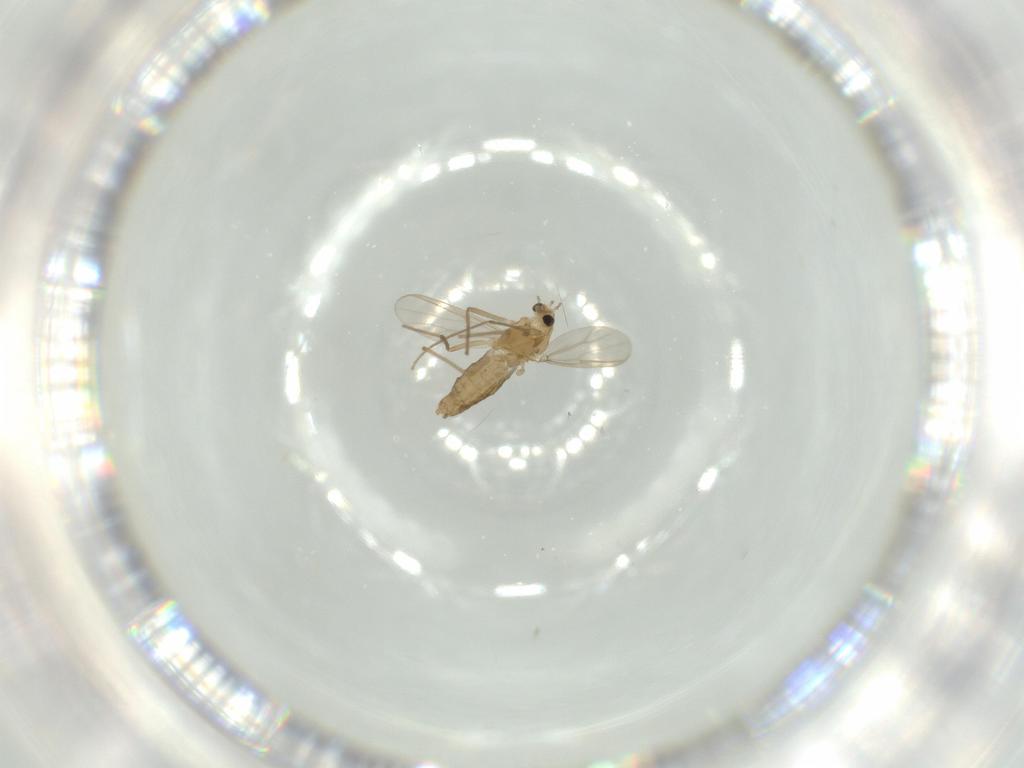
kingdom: Animalia
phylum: Arthropoda
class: Insecta
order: Diptera
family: Chironomidae
